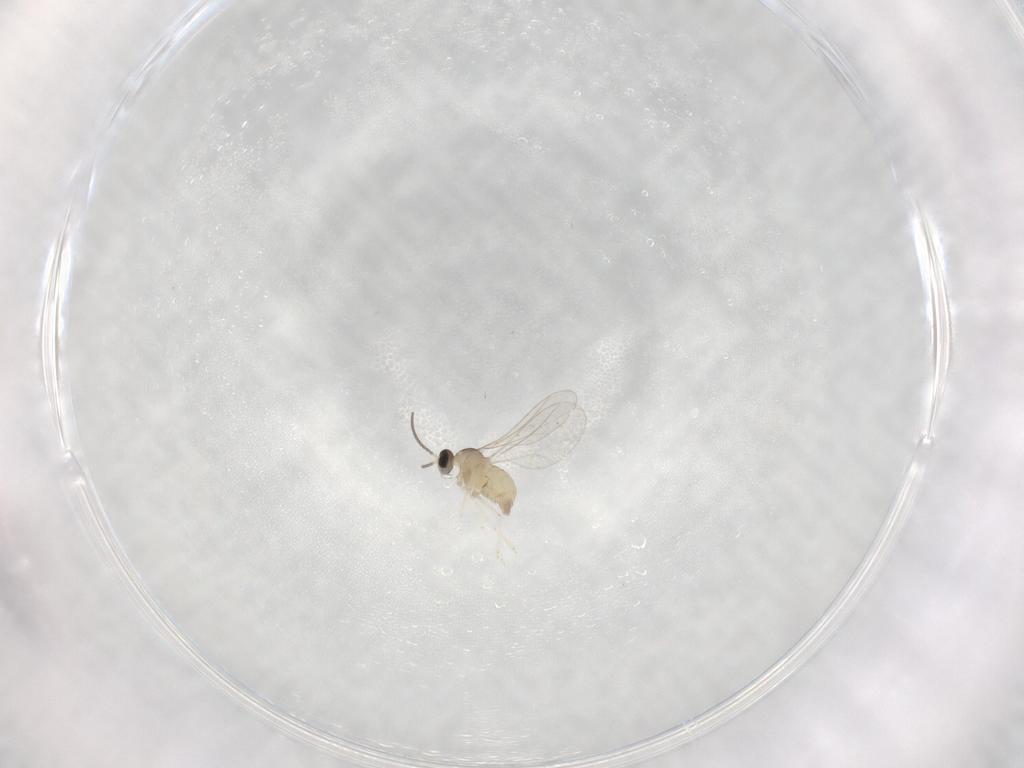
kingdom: Animalia
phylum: Arthropoda
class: Insecta
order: Diptera
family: Cecidomyiidae
